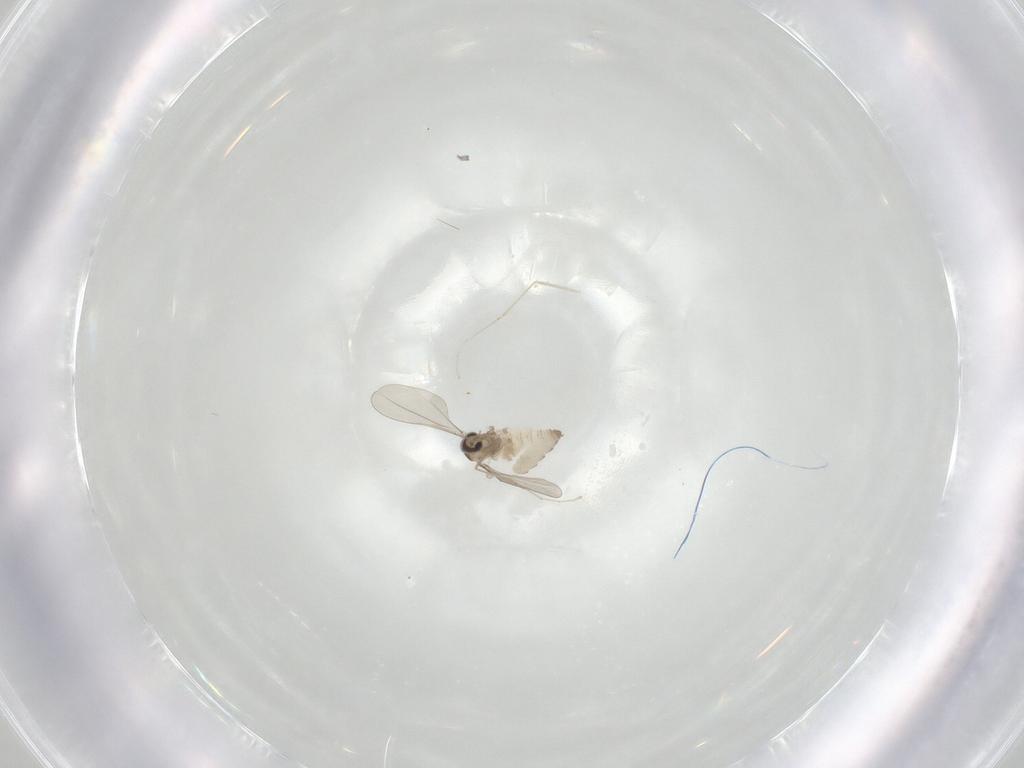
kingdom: Animalia
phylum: Arthropoda
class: Insecta
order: Diptera
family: Cecidomyiidae
